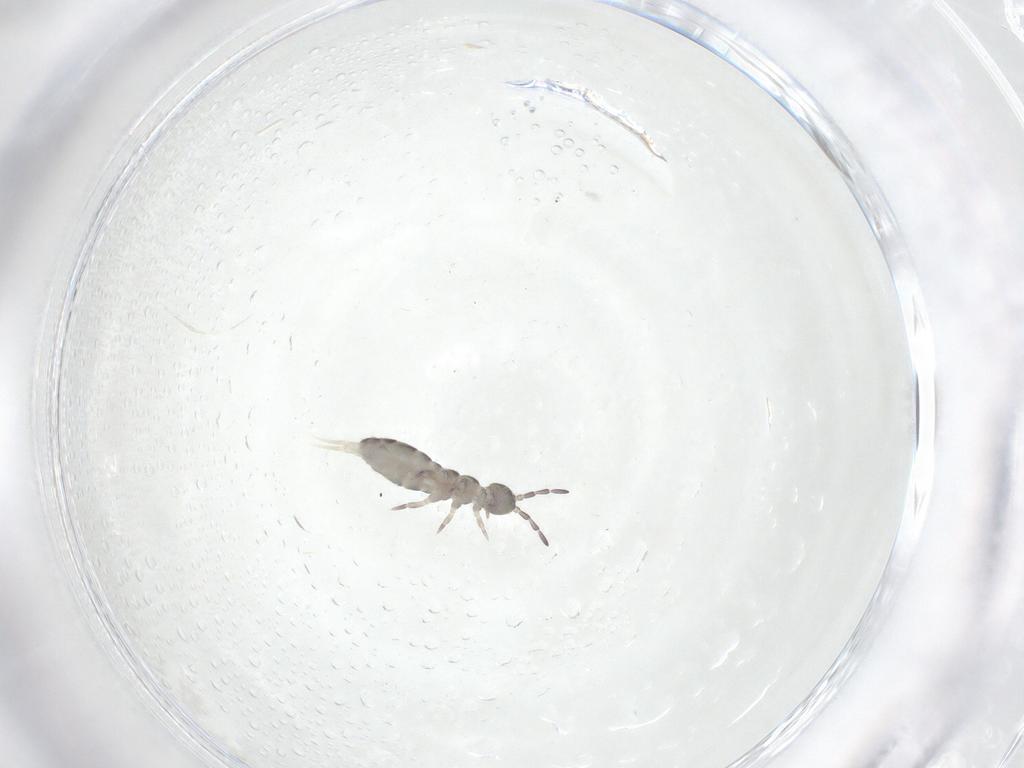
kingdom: Animalia
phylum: Arthropoda
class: Collembola
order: Entomobryomorpha
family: Isotomidae
